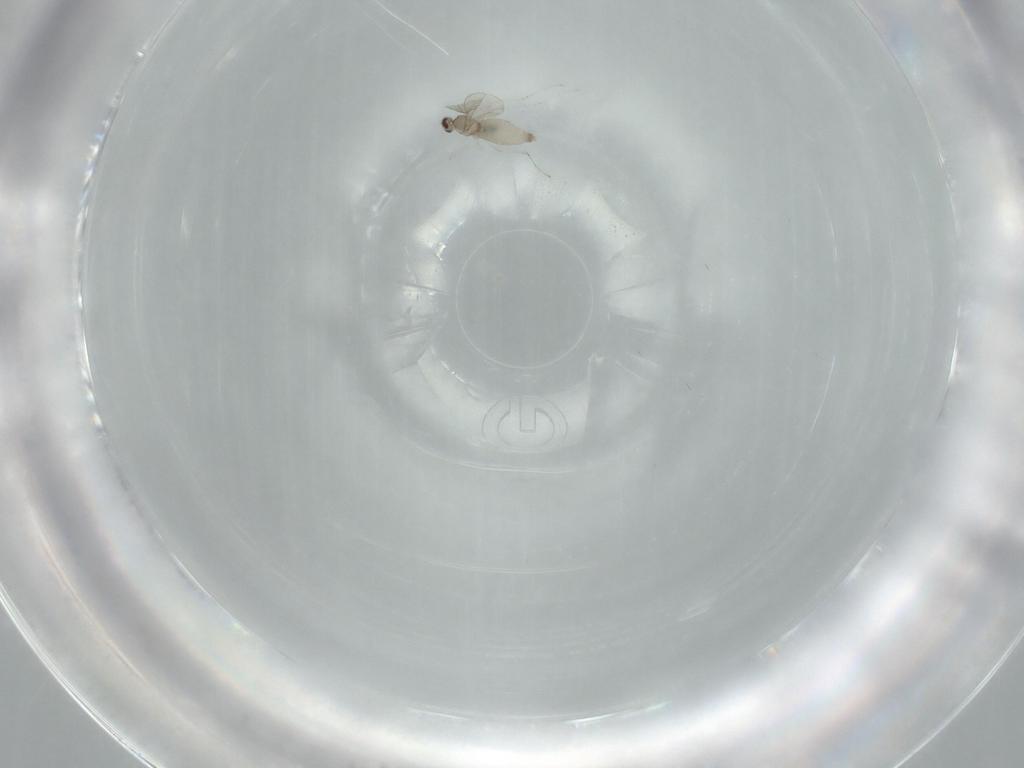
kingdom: Animalia
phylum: Arthropoda
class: Insecta
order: Diptera
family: Cecidomyiidae
